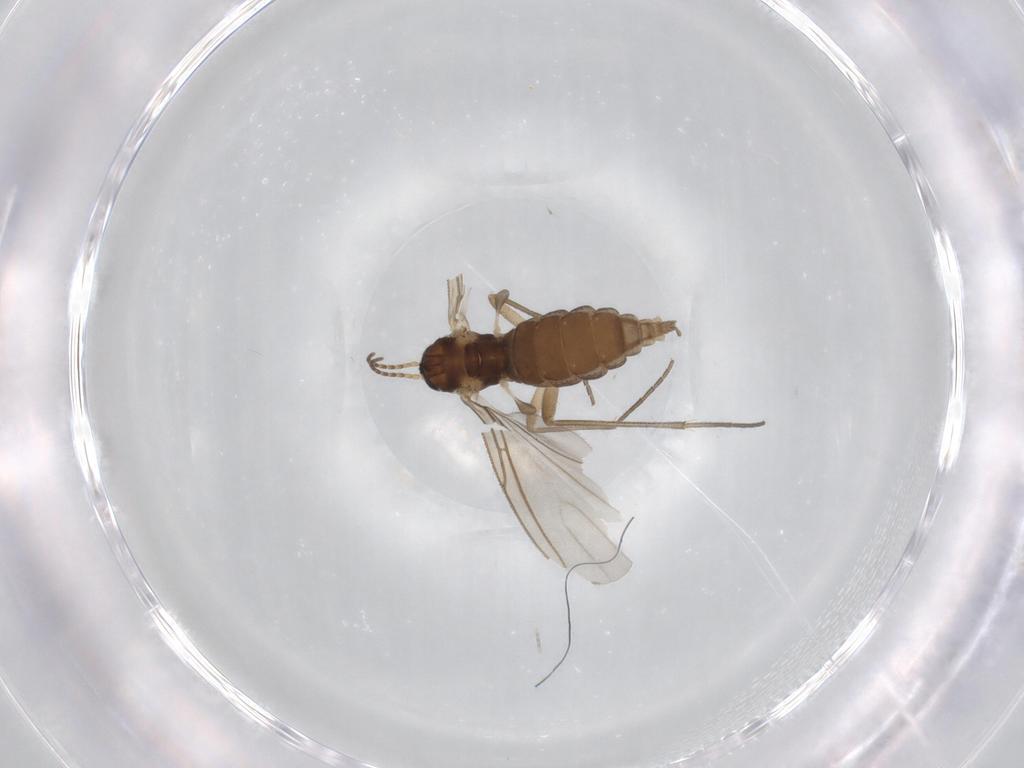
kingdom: Animalia
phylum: Arthropoda
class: Insecta
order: Diptera
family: Sciaridae
